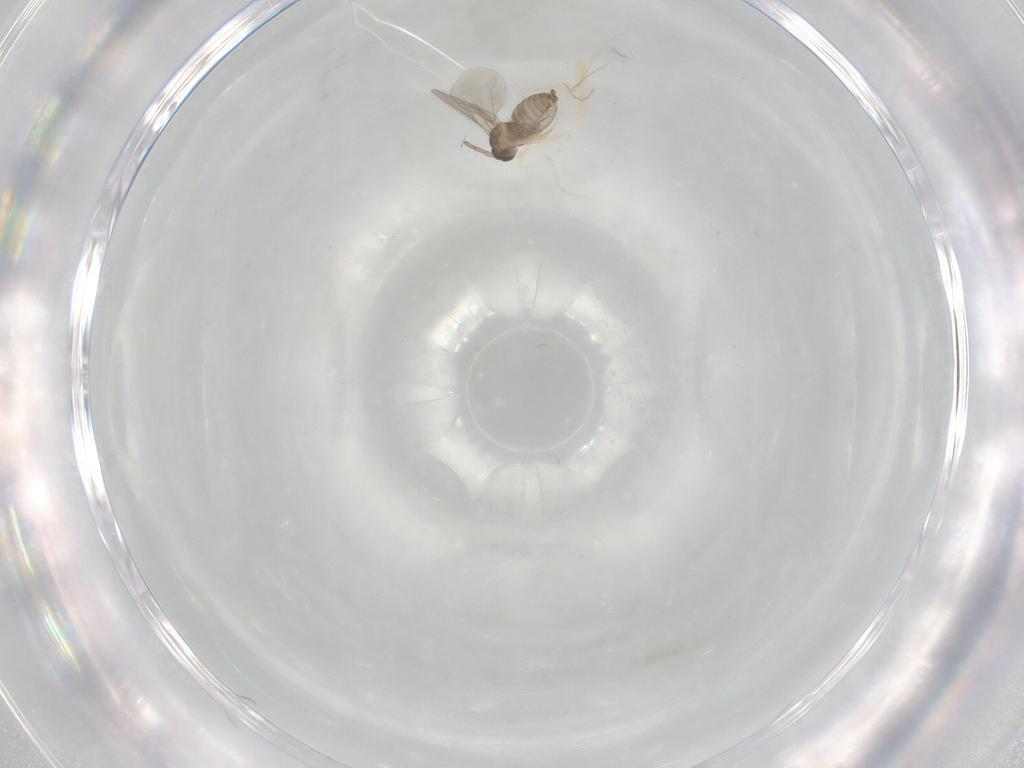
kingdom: Animalia
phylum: Arthropoda
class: Insecta
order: Diptera
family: Cecidomyiidae
